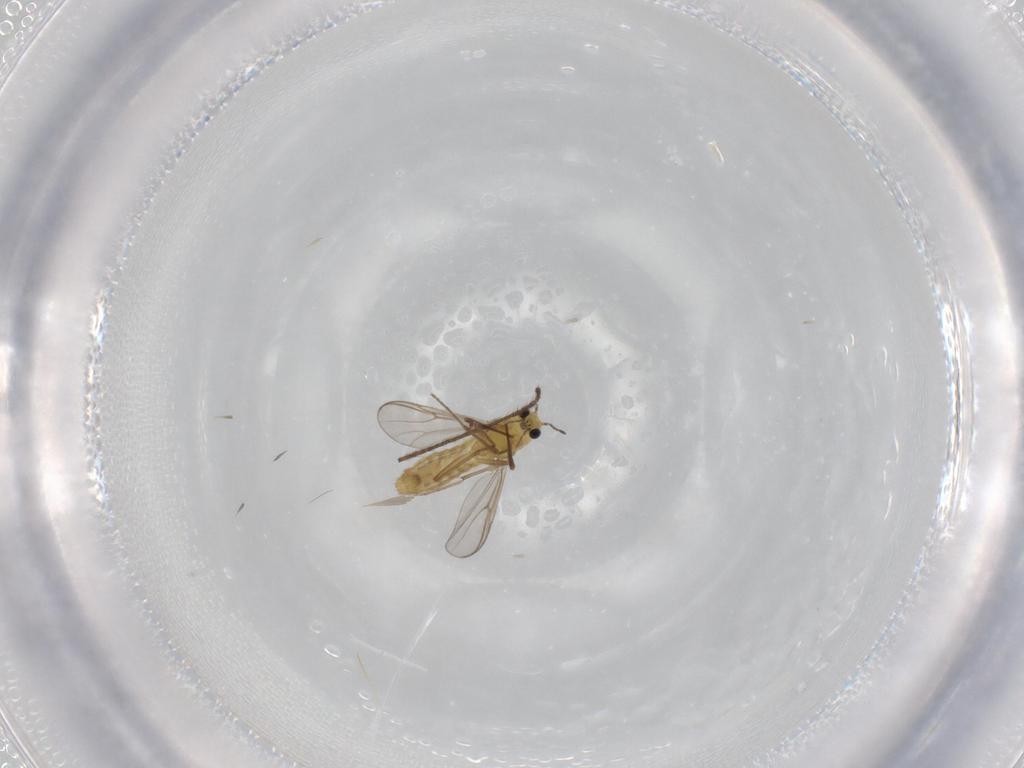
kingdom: Animalia
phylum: Arthropoda
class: Insecta
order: Diptera
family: Chironomidae
